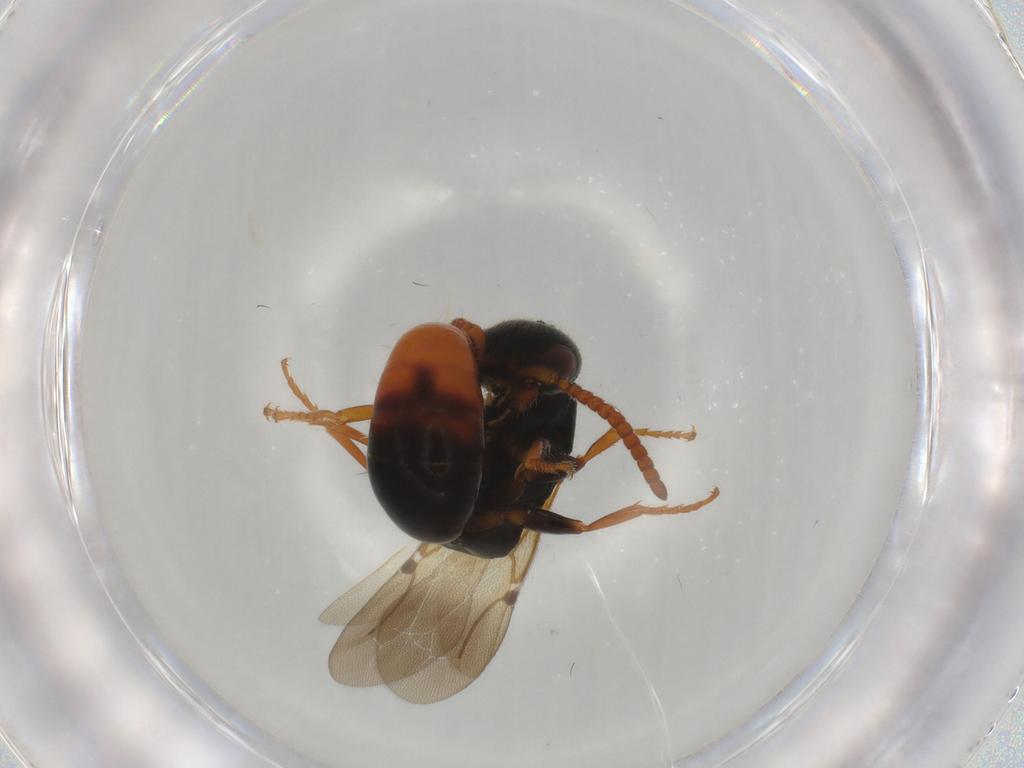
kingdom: Animalia
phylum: Arthropoda
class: Insecta
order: Hymenoptera
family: Bethylidae
